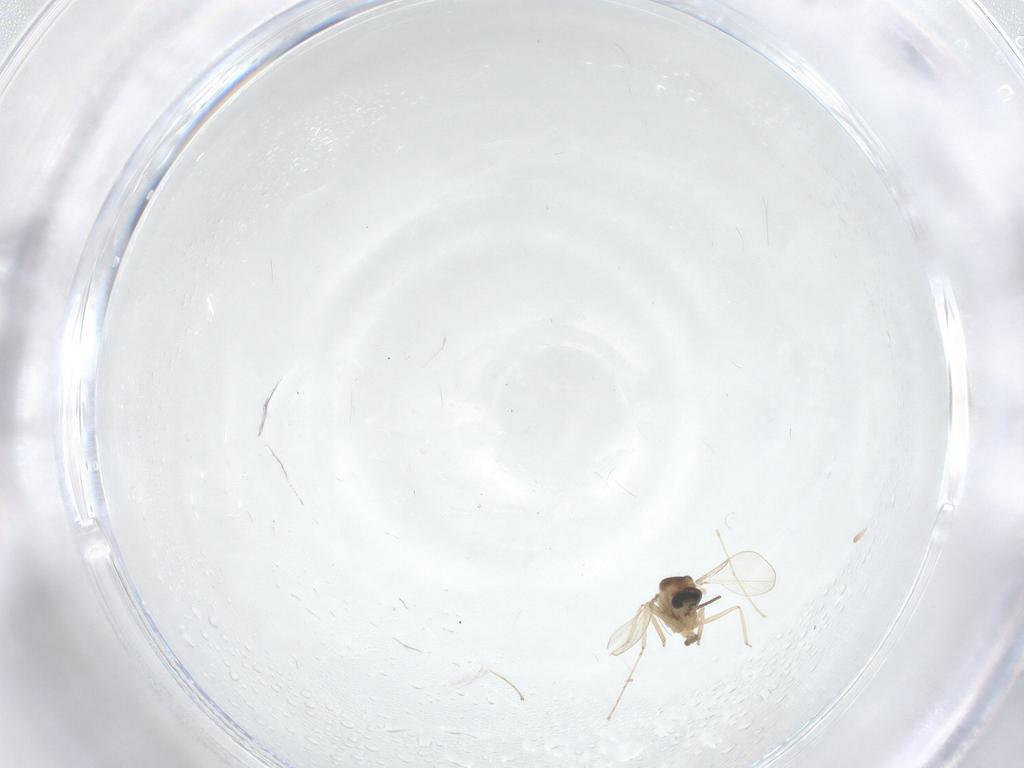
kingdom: Animalia
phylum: Arthropoda
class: Insecta
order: Diptera
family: Cecidomyiidae
